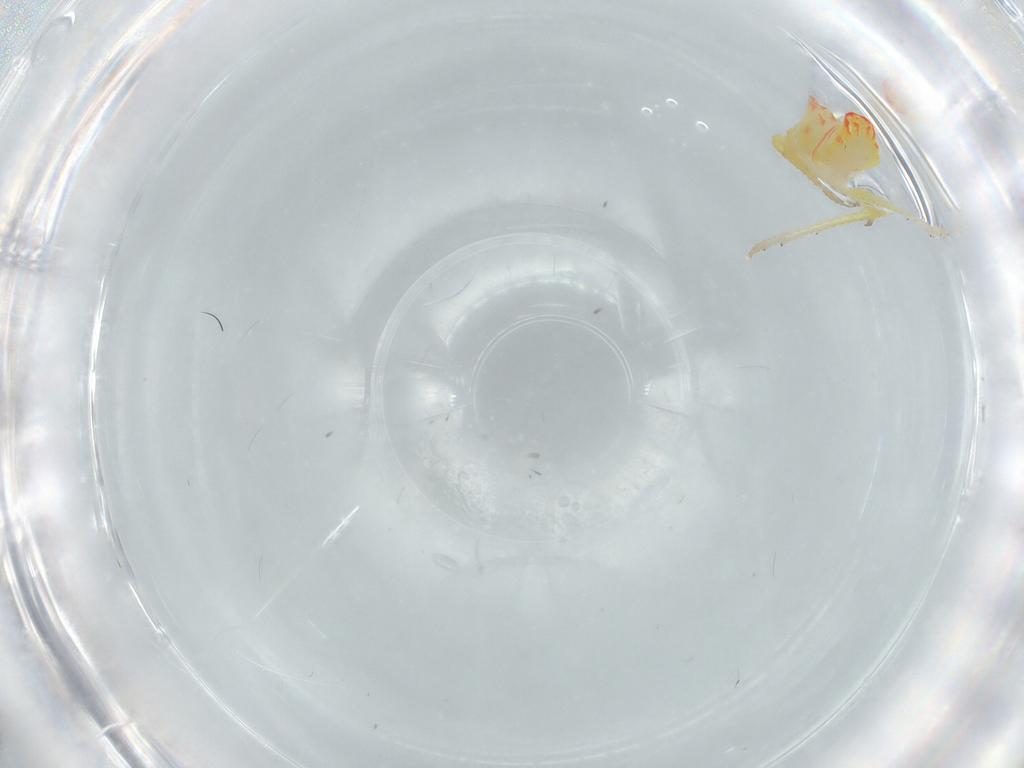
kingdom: Animalia
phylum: Arthropoda
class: Insecta
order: Hemiptera
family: Tropiduchidae
